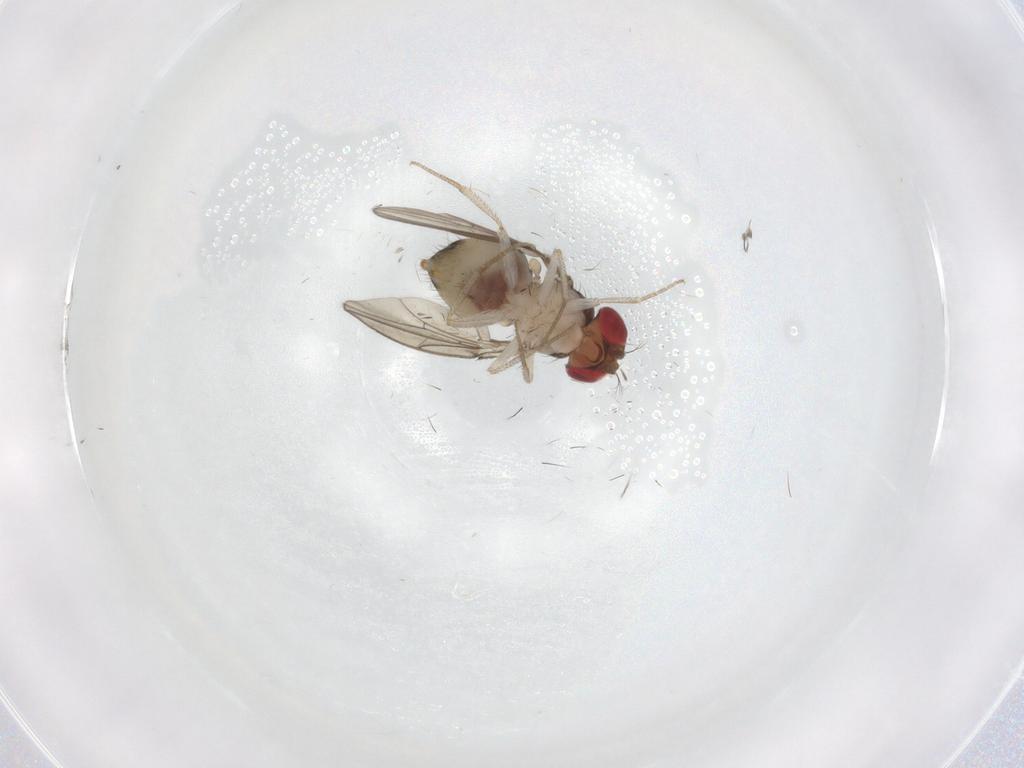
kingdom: Animalia
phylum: Arthropoda
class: Insecta
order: Diptera
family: Drosophilidae
